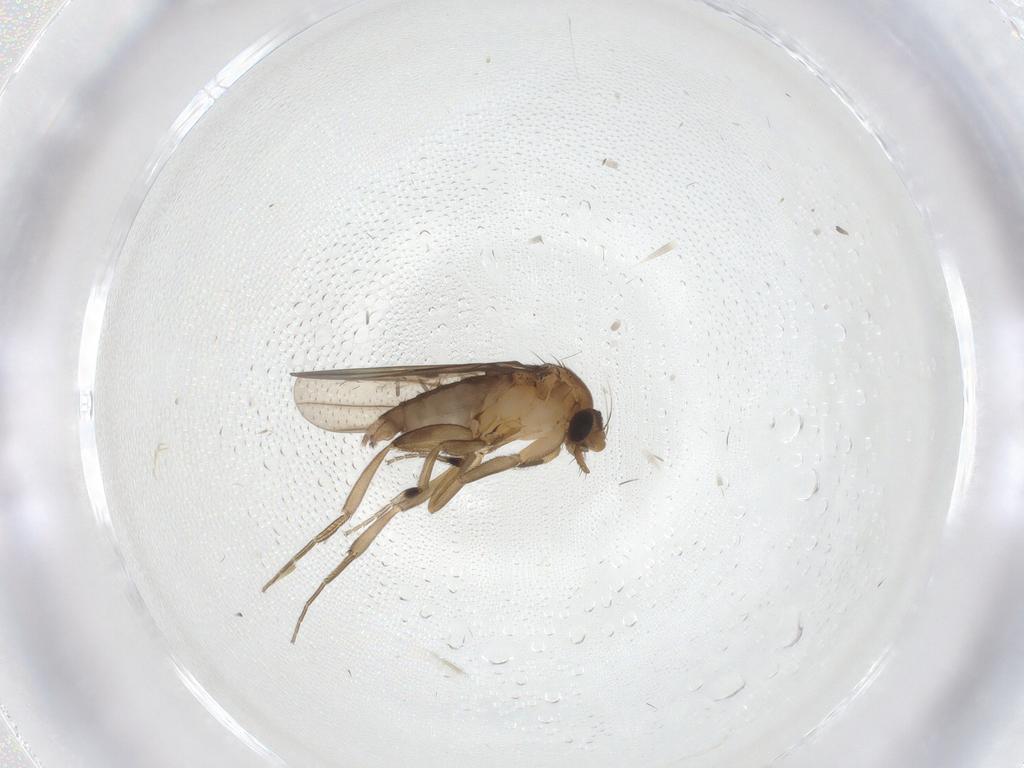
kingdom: Animalia
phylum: Arthropoda
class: Insecta
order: Diptera
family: Phoridae
